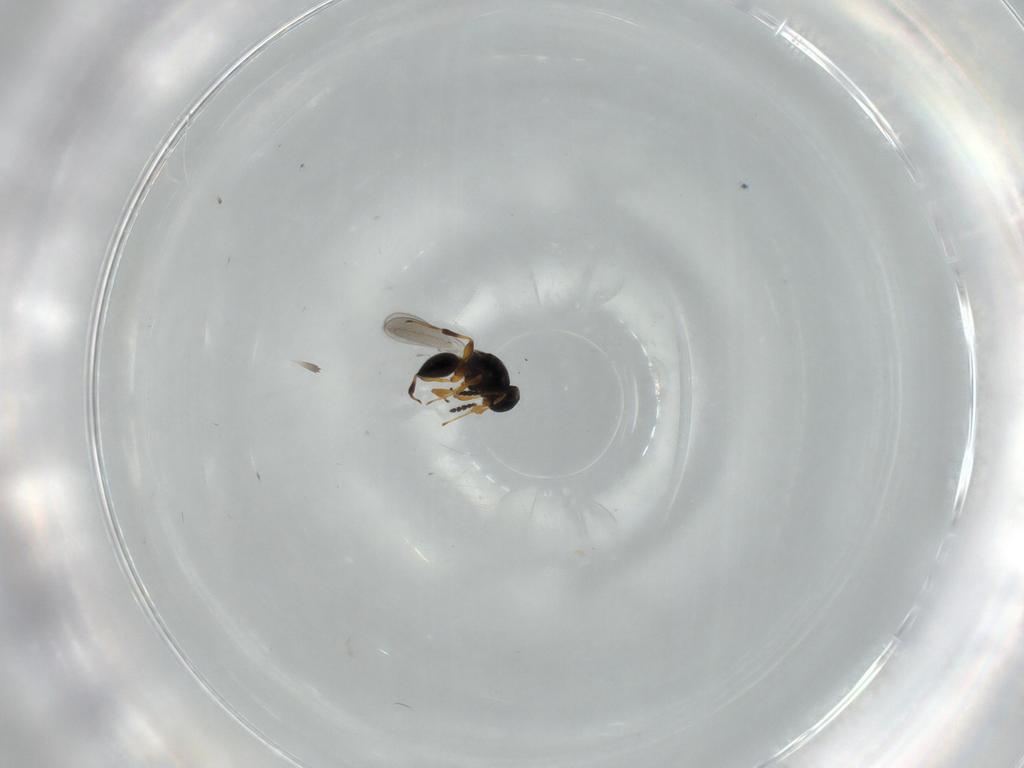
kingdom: Animalia
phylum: Arthropoda
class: Insecta
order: Hymenoptera
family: Platygastridae
